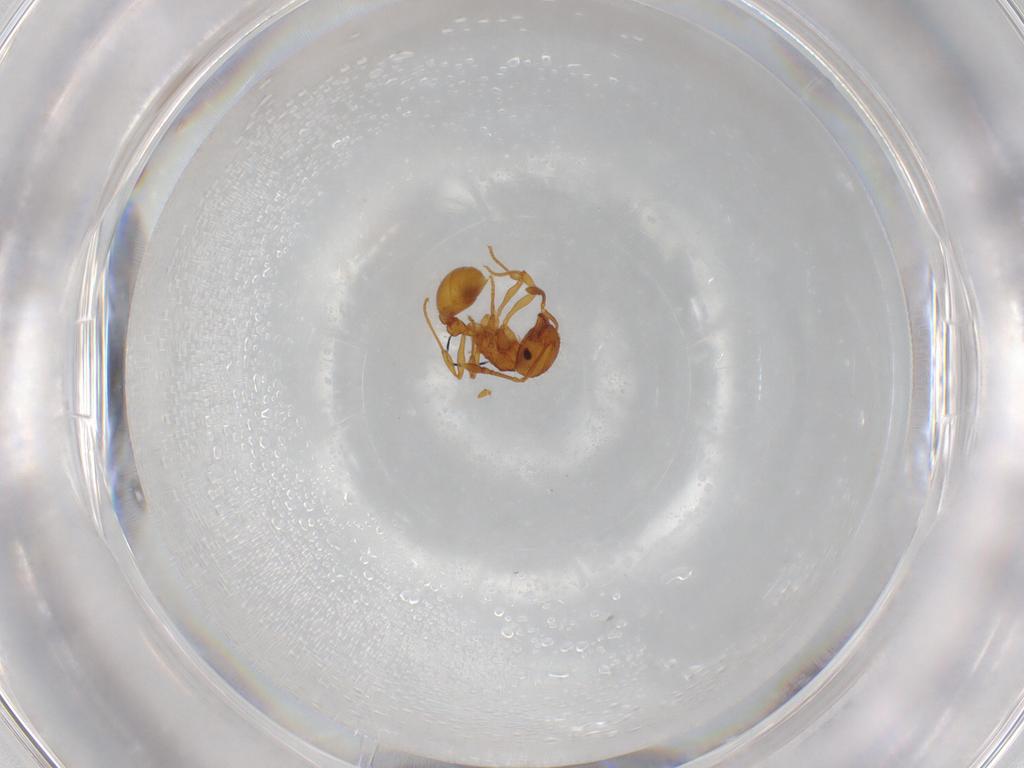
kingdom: Animalia
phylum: Arthropoda
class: Insecta
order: Hymenoptera
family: Formicidae
